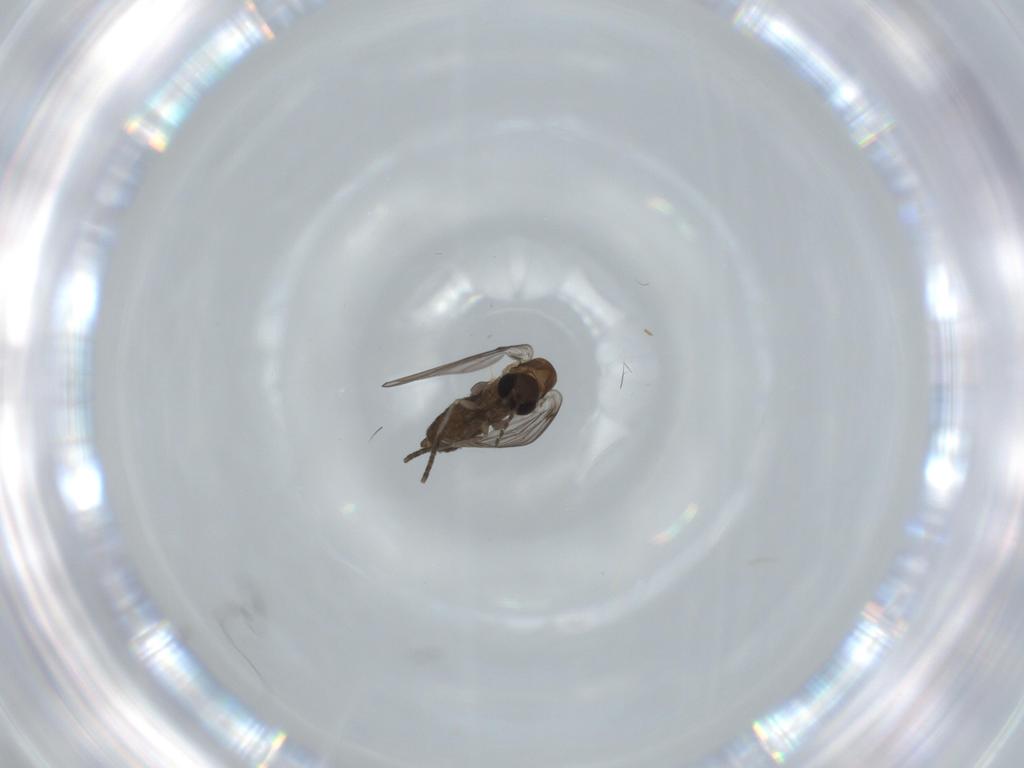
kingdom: Animalia
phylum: Arthropoda
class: Insecta
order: Diptera
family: Psychodidae
